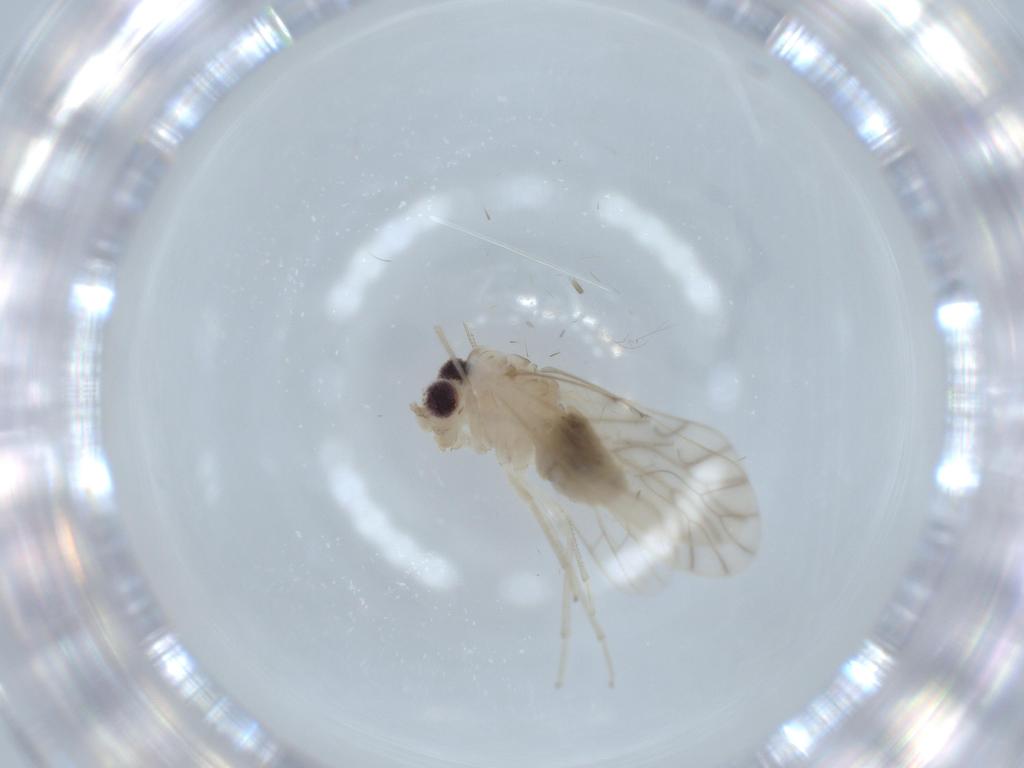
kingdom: Animalia
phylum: Arthropoda
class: Insecta
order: Psocodea
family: Caeciliusidae
